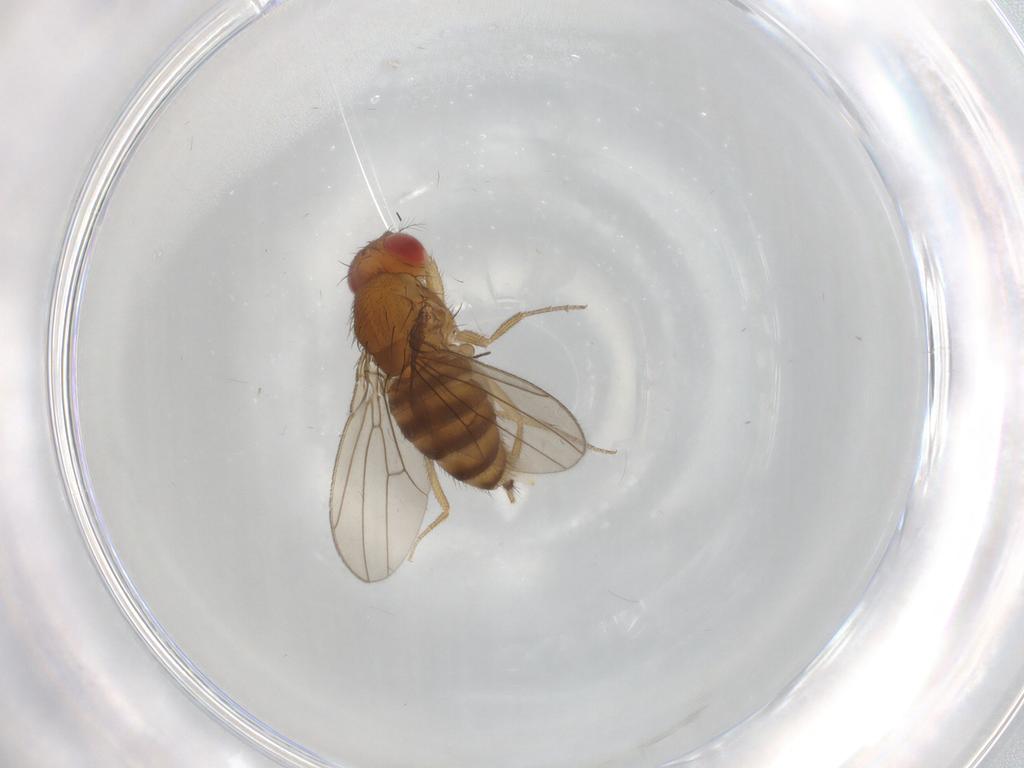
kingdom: Animalia
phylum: Arthropoda
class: Insecta
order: Diptera
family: Drosophilidae
